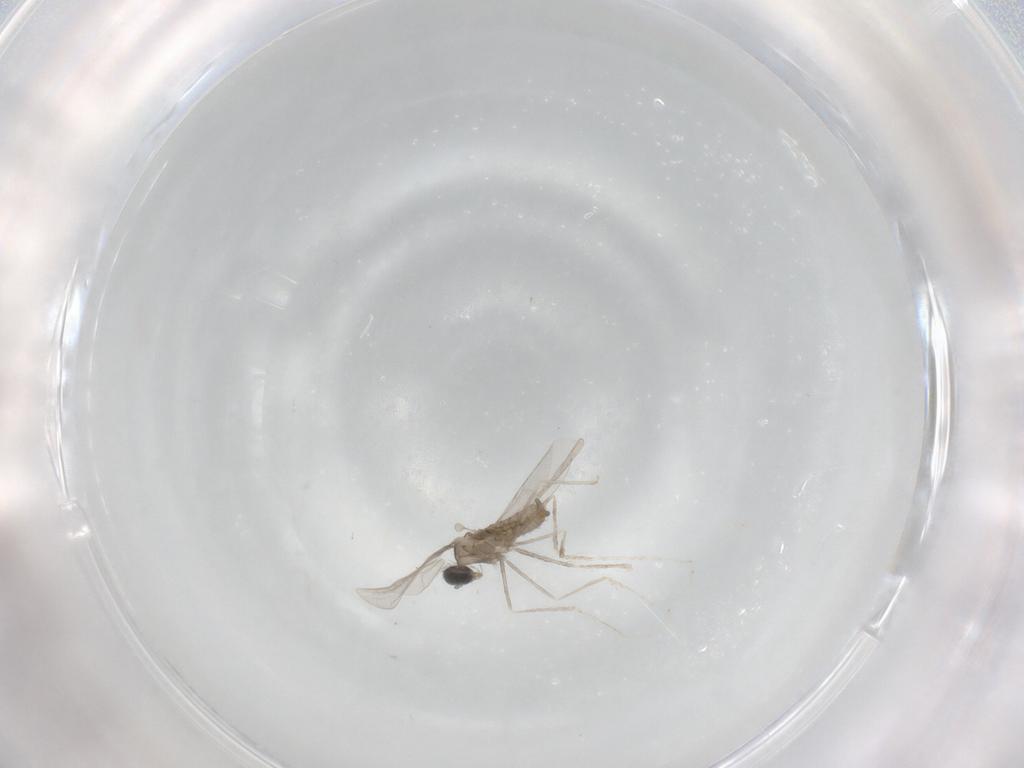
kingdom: Animalia
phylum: Arthropoda
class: Insecta
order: Diptera
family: Cecidomyiidae
